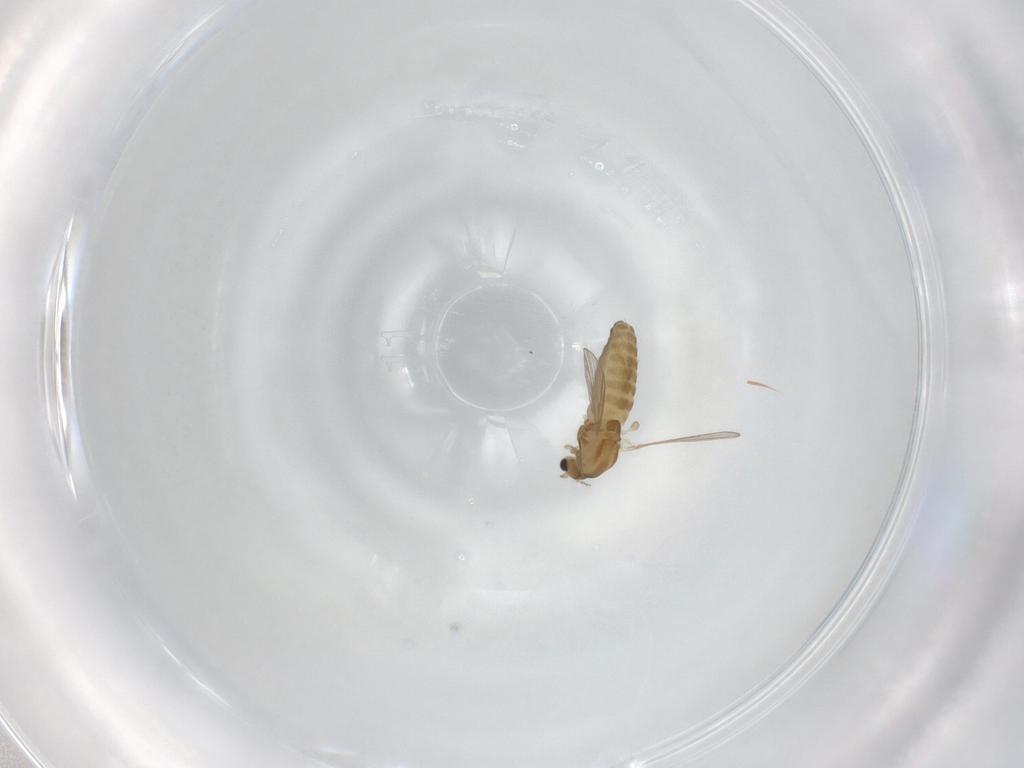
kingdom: Animalia
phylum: Arthropoda
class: Insecta
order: Diptera
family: Chironomidae
